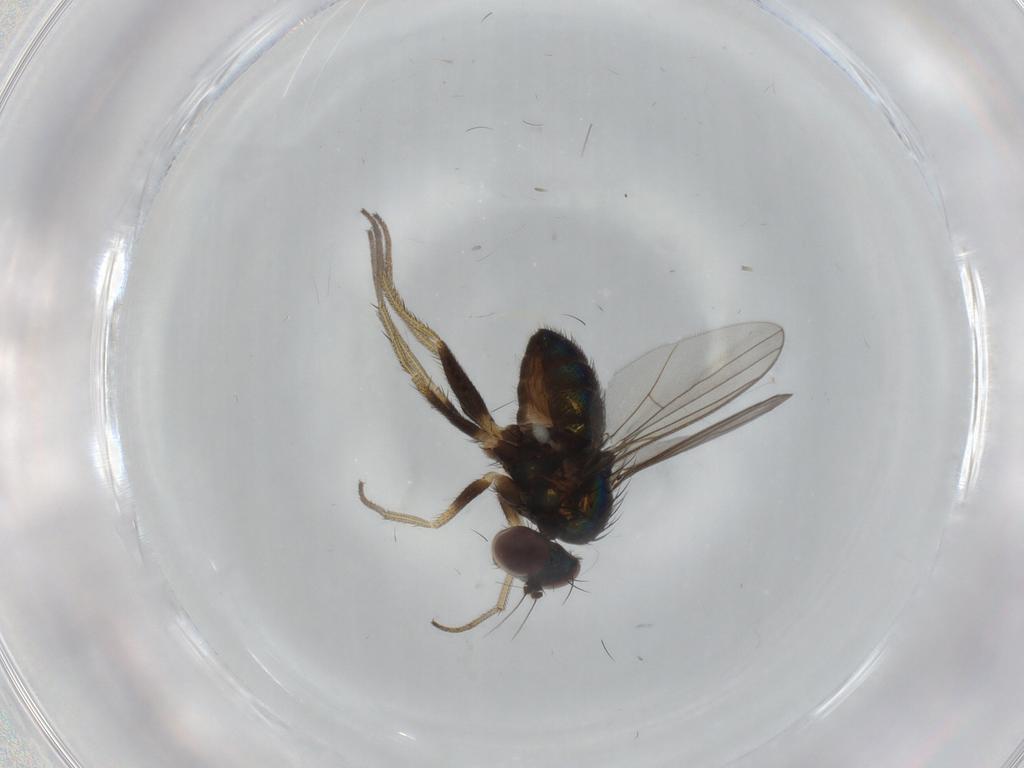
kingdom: Animalia
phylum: Arthropoda
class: Insecta
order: Diptera
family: Dolichopodidae
